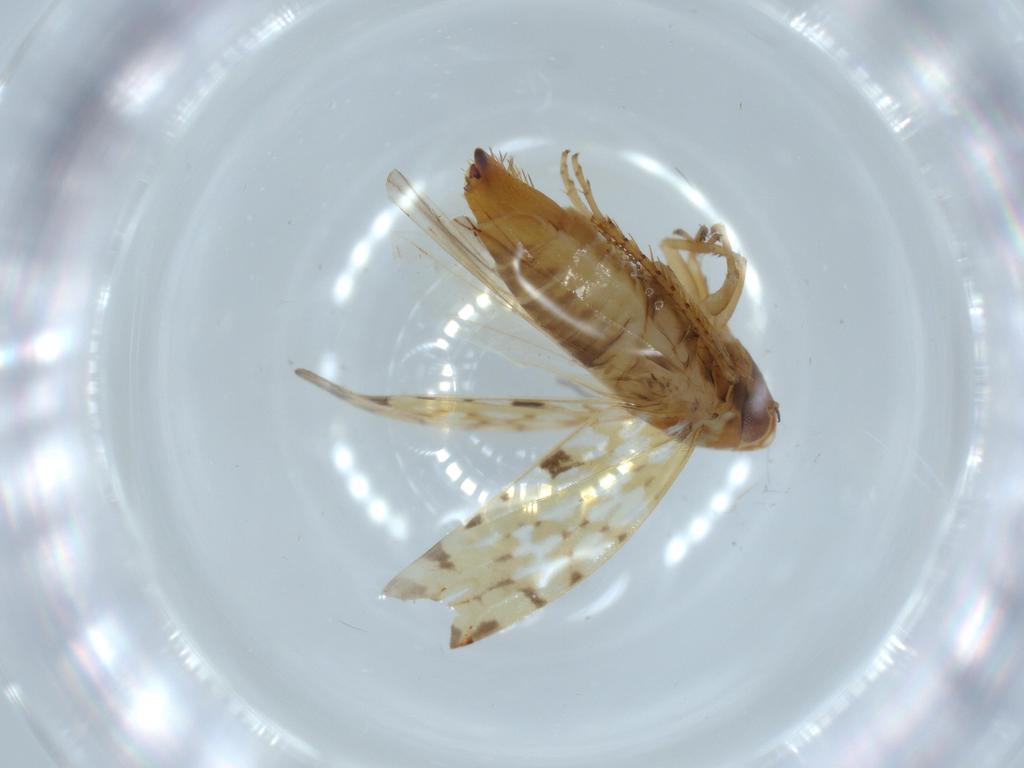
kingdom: Animalia
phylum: Arthropoda
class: Insecta
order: Hemiptera
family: Cicadellidae
